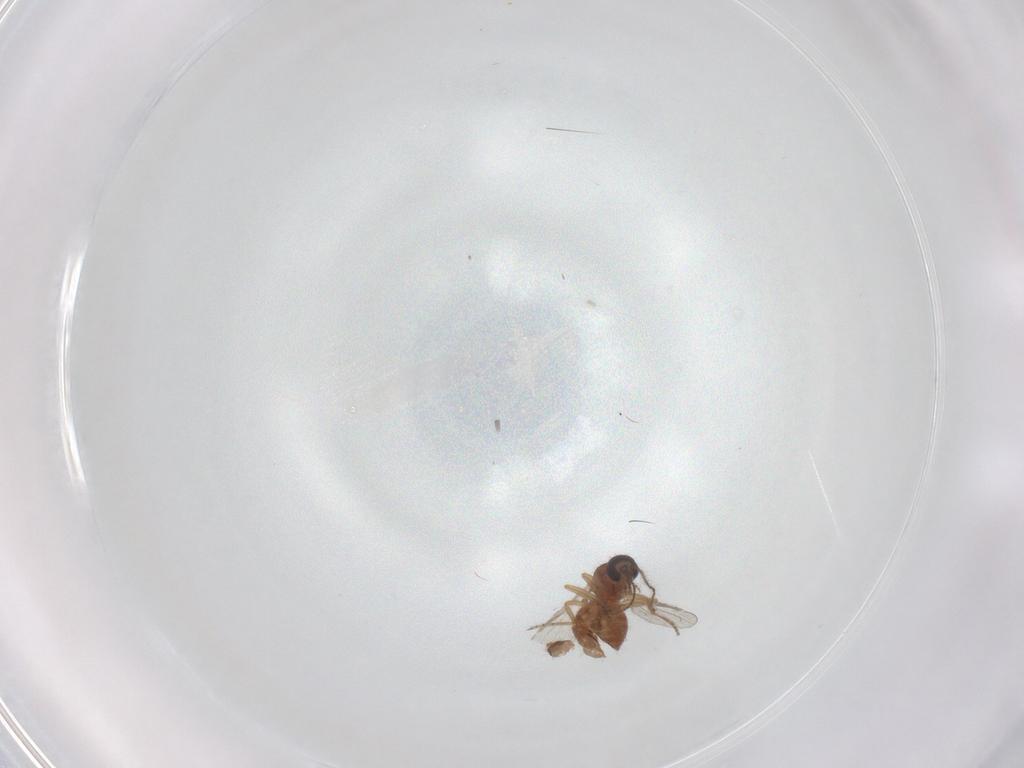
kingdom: Animalia
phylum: Arthropoda
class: Insecta
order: Diptera
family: Ceratopogonidae
